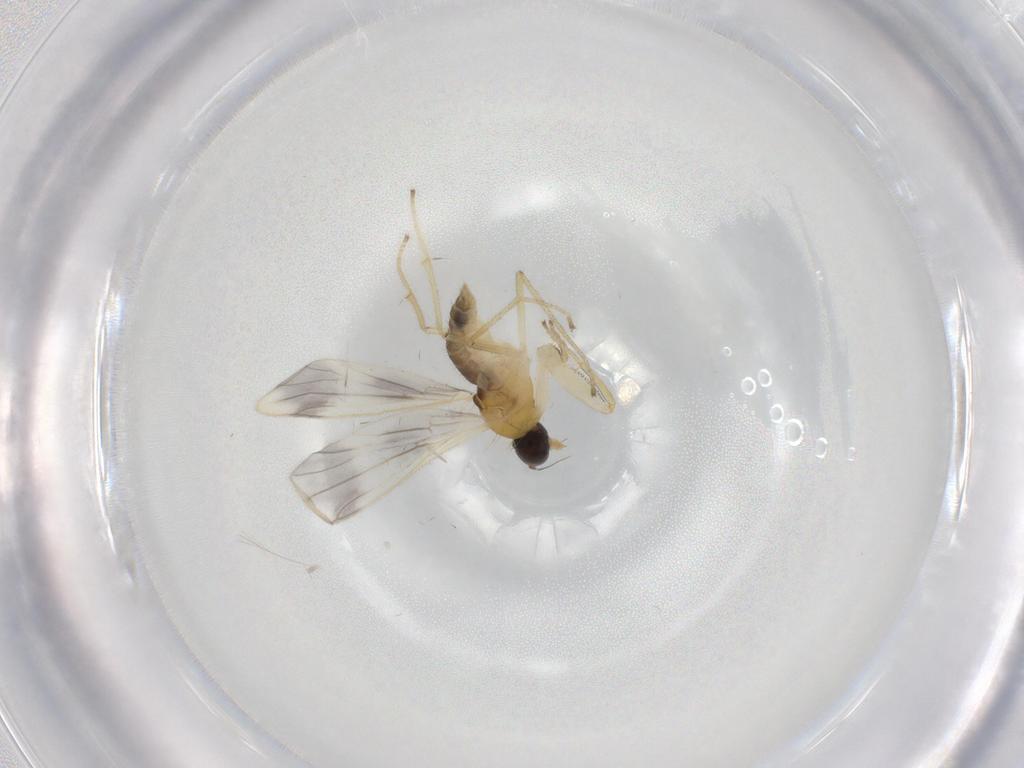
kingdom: Animalia
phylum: Arthropoda
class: Insecta
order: Diptera
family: Empididae
